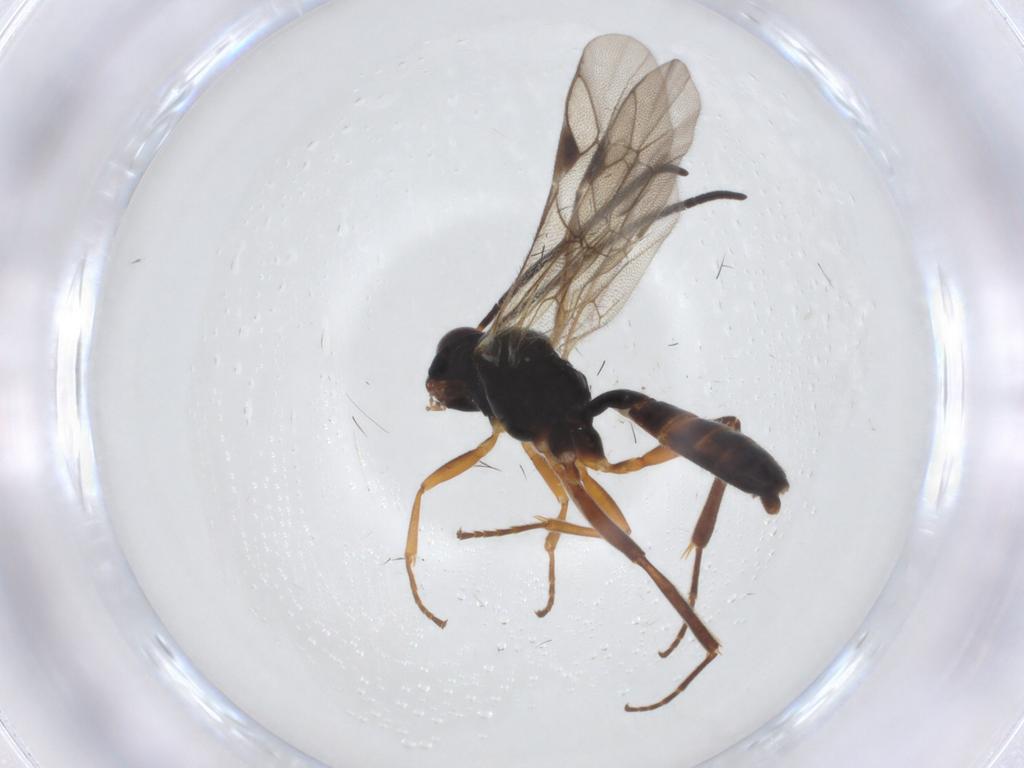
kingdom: Animalia
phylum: Arthropoda
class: Insecta
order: Hymenoptera
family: Ichneumonidae
